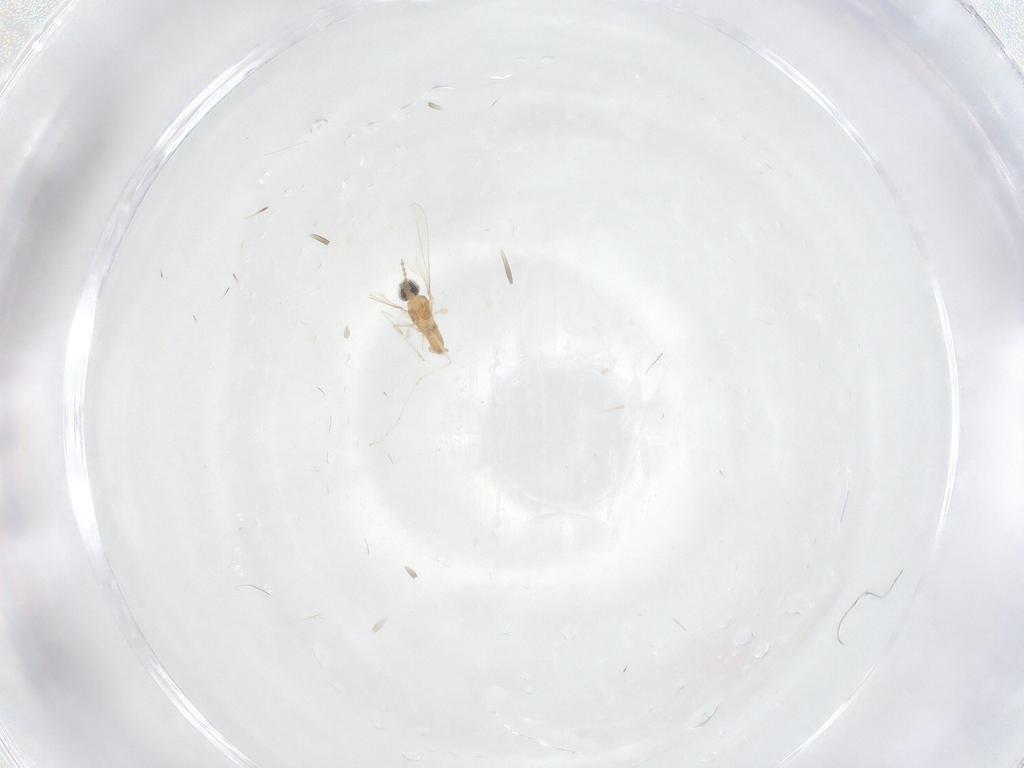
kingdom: Animalia
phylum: Arthropoda
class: Insecta
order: Diptera
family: Cecidomyiidae
